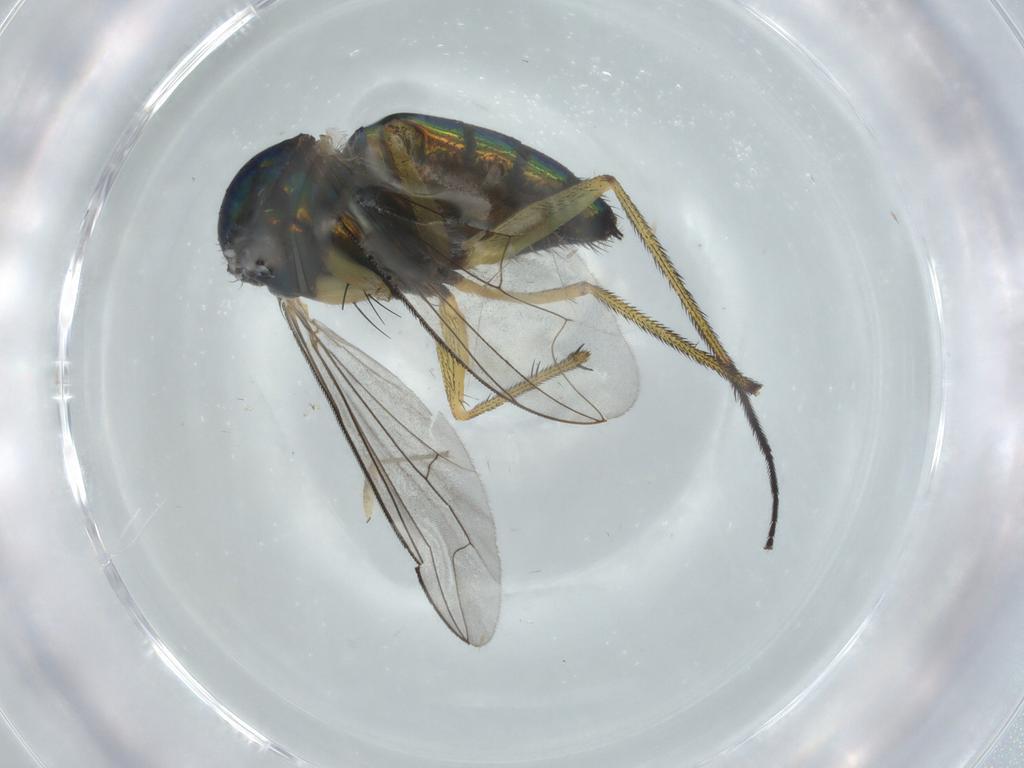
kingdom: Animalia
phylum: Arthropoda
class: Insecta
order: Diptera
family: Dolichopodidae
